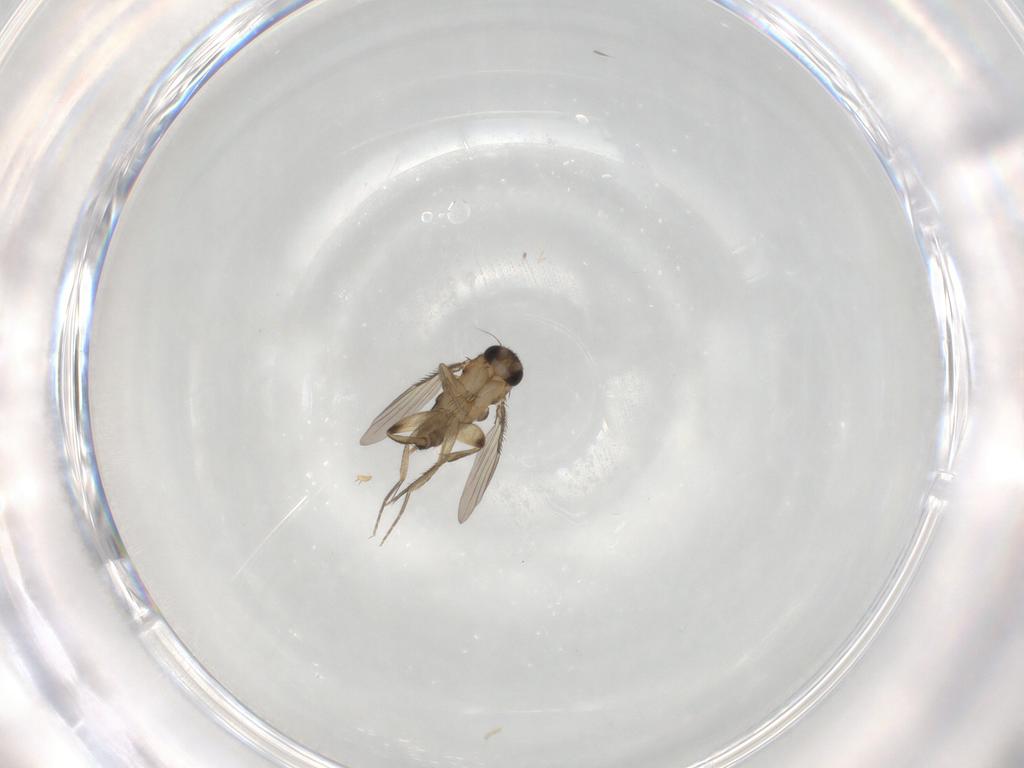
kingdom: Animalia
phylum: Arthropoda
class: Insecta
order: Diptera
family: Phoridae
